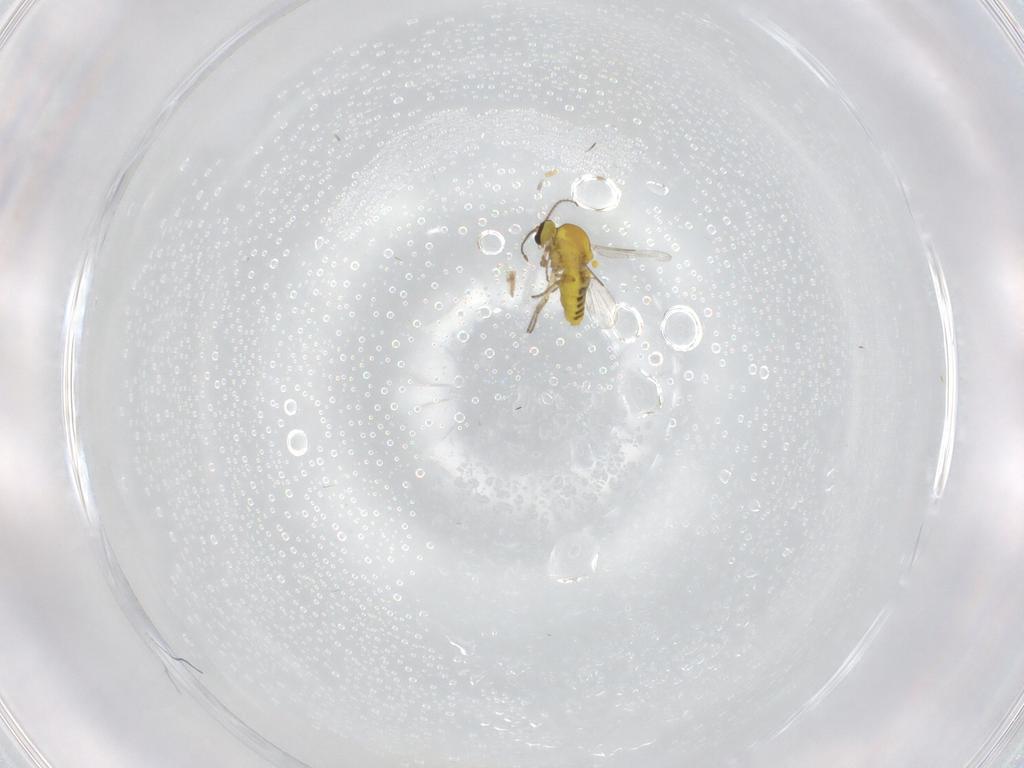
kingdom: Animalia
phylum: Arthropoda
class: Insecta
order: Diptera
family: Ceratopogonidae
